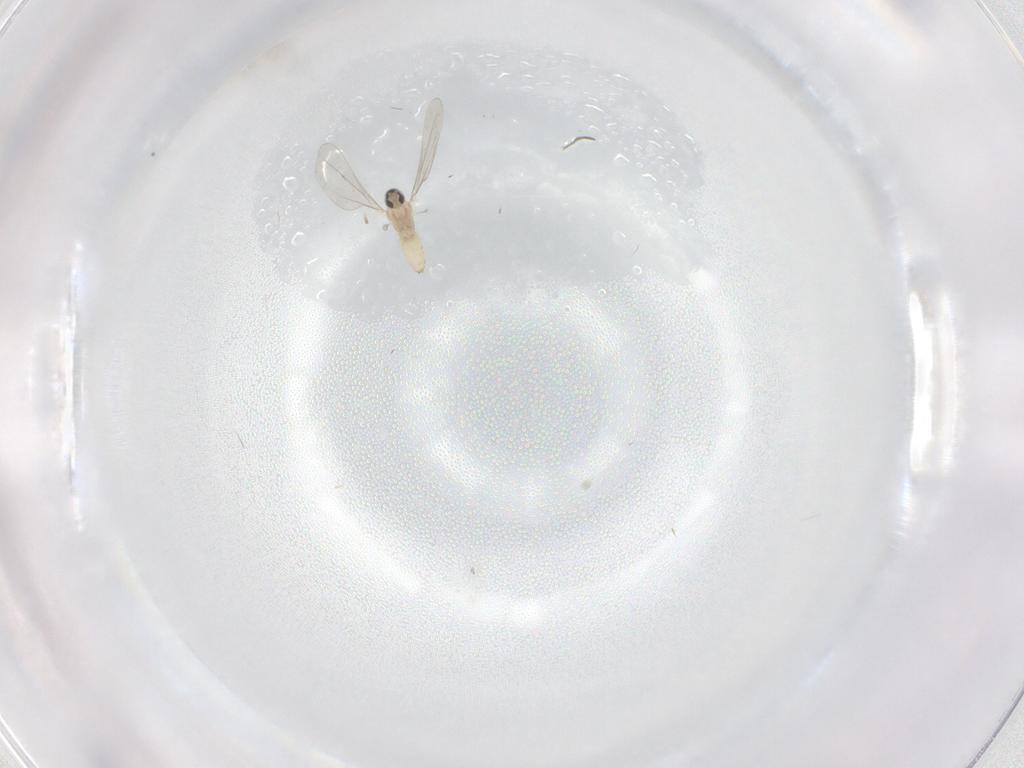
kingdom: Animalia
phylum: Arthropoda
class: Insecta
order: Diptera
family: Cecidomyiidae
